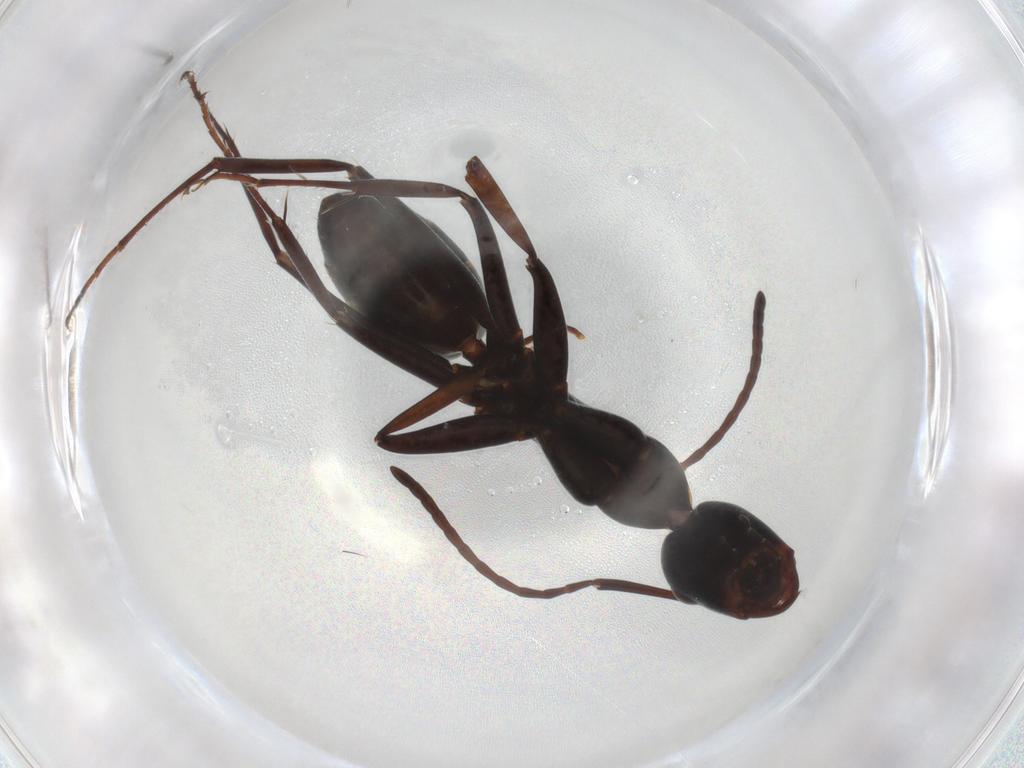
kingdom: Animalia
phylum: Arthropoda
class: Insecta
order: Hymenoptera
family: Formicidae
